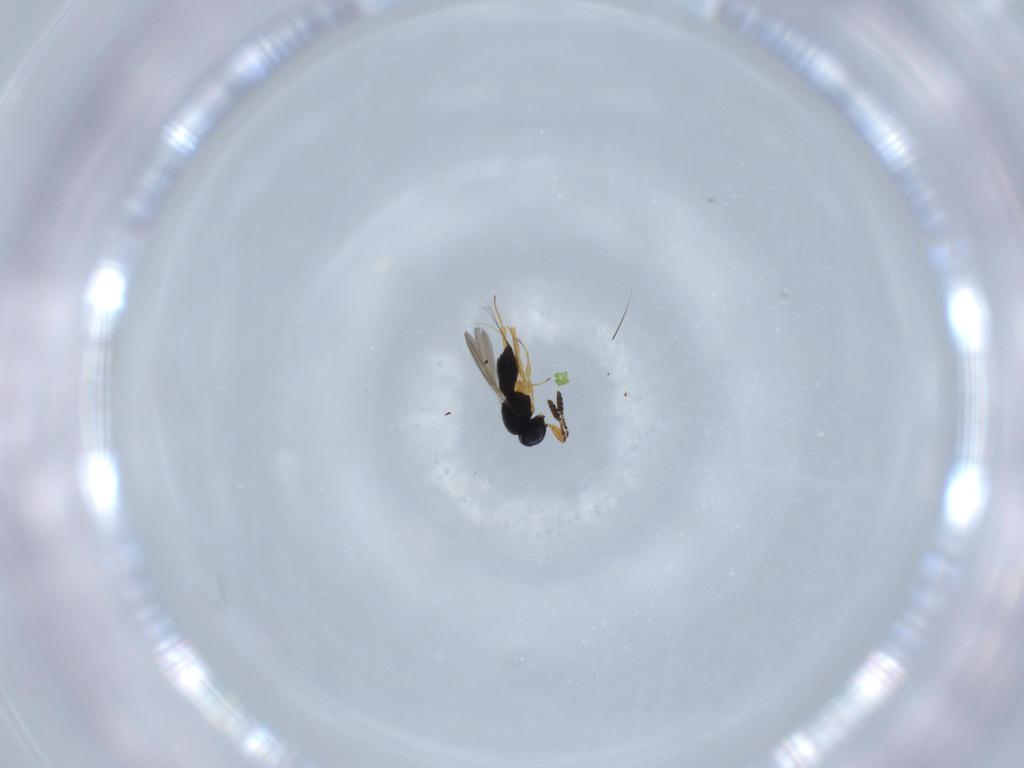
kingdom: Animalia
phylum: Arthropoda
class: Insecta
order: Hymenoptera
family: Scelionidae
